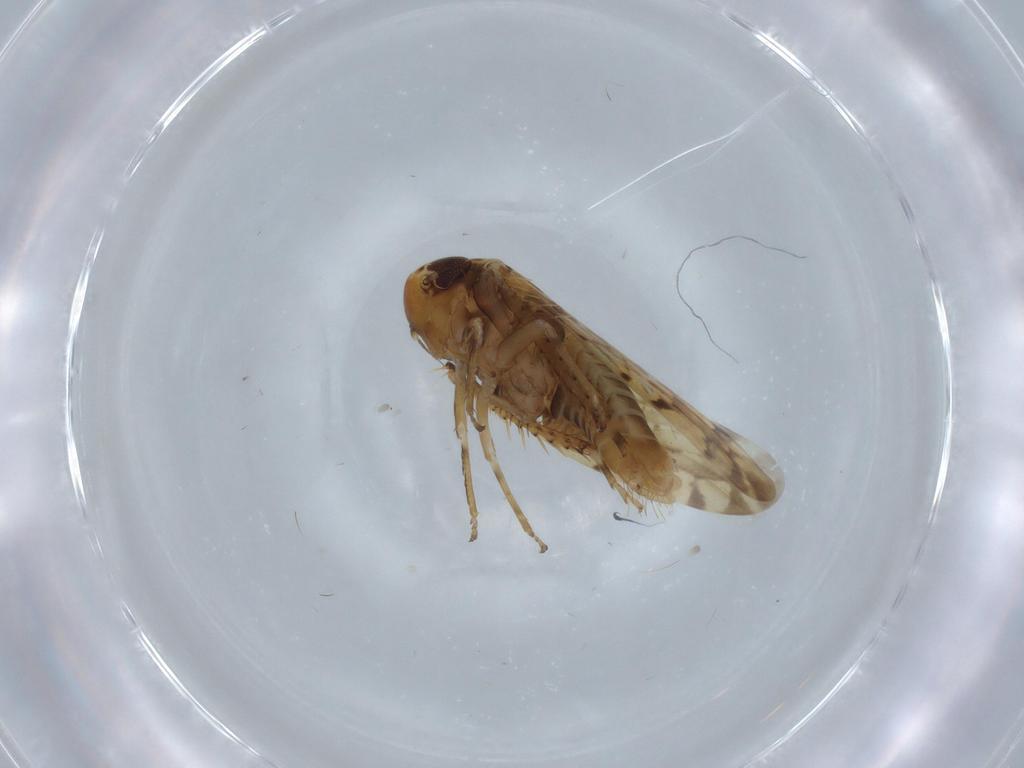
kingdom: Animalia
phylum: Arthropoda
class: Insecta
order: Hemiptera
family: Cicadellidae
